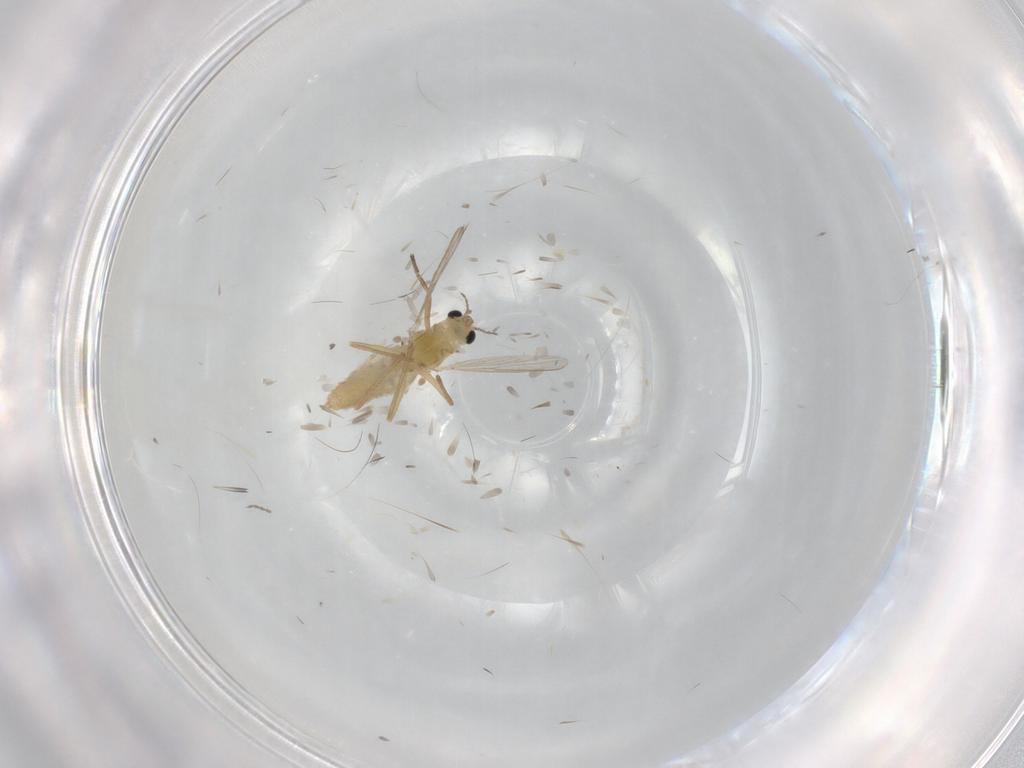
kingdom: Animalia
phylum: Arthropoda
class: Insecta
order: Diptera
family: Chironomidae
